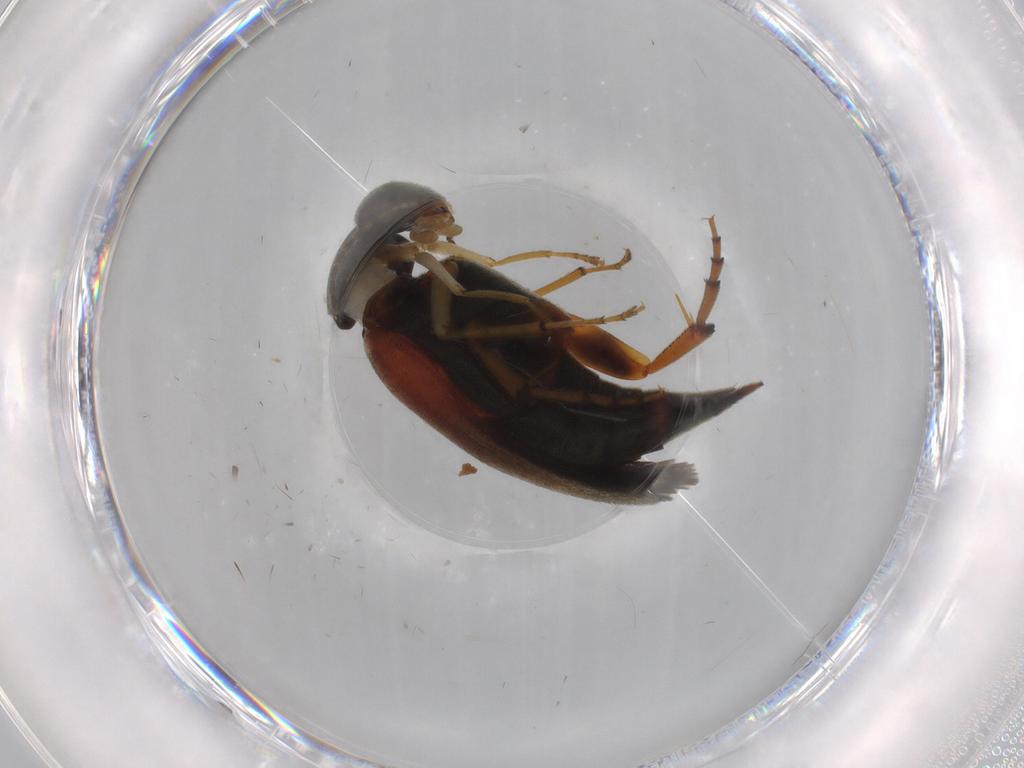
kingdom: Animalia
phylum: Arthropoda
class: Insecta
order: Coleoptera
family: Mordellidae
